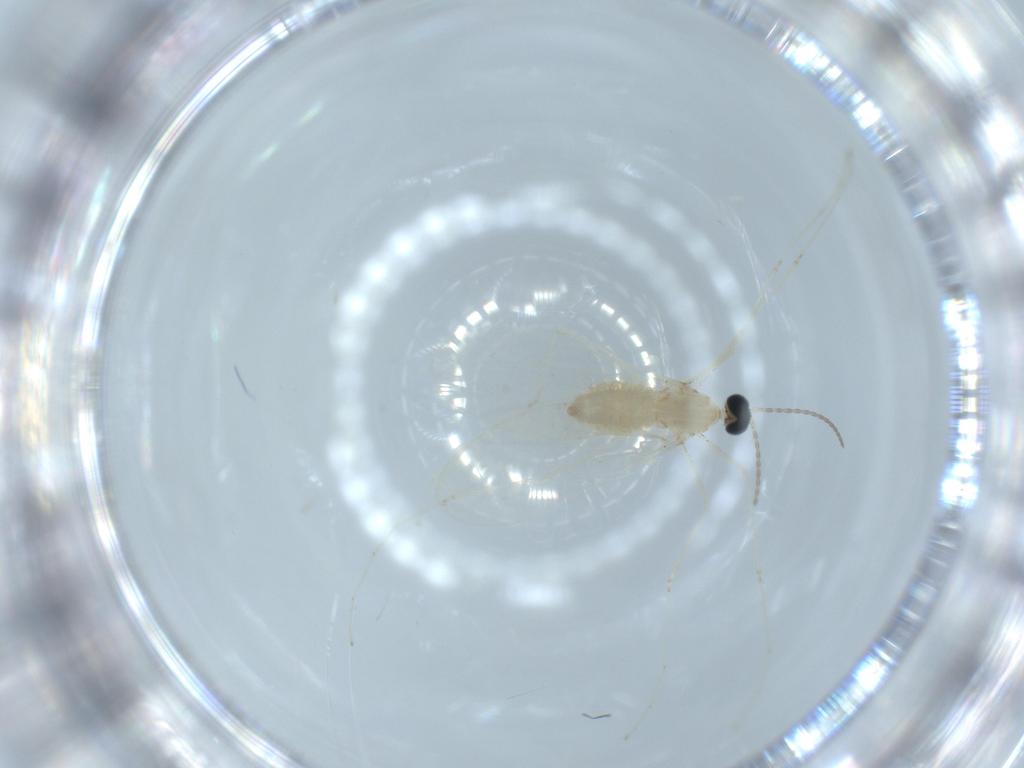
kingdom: Animalia
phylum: Arthropoda
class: Insecta
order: Diptera
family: Cecidomyiidae
